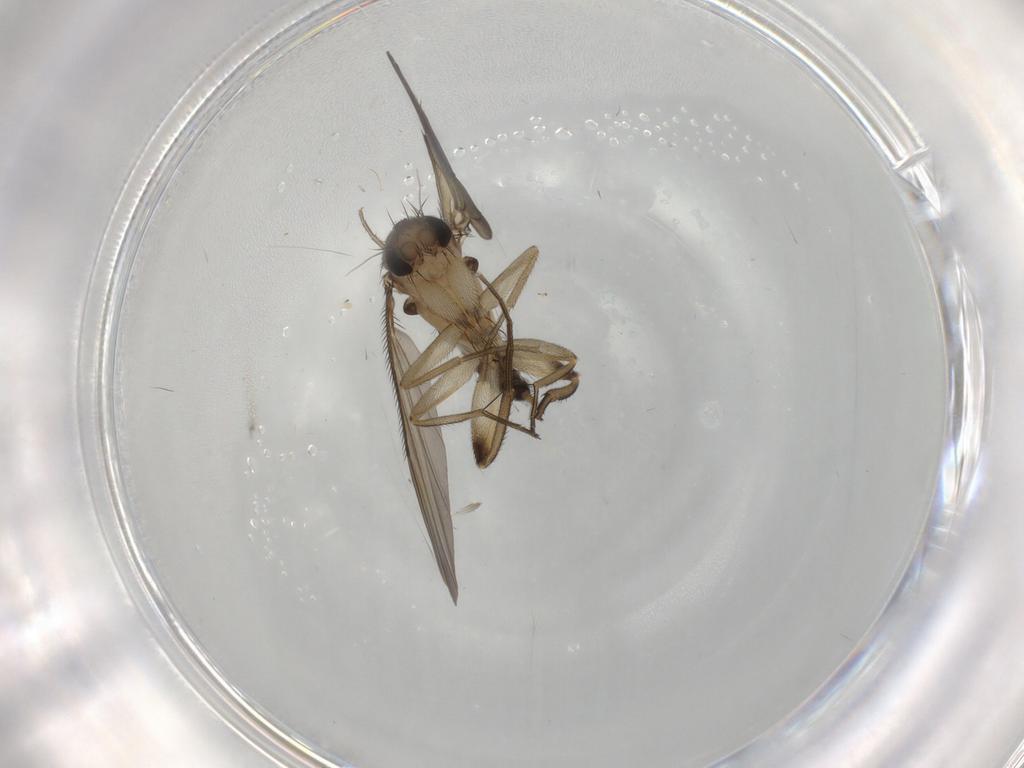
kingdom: Animalia
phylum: Arthropoda
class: Insecta
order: Diptera
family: Phoridae
